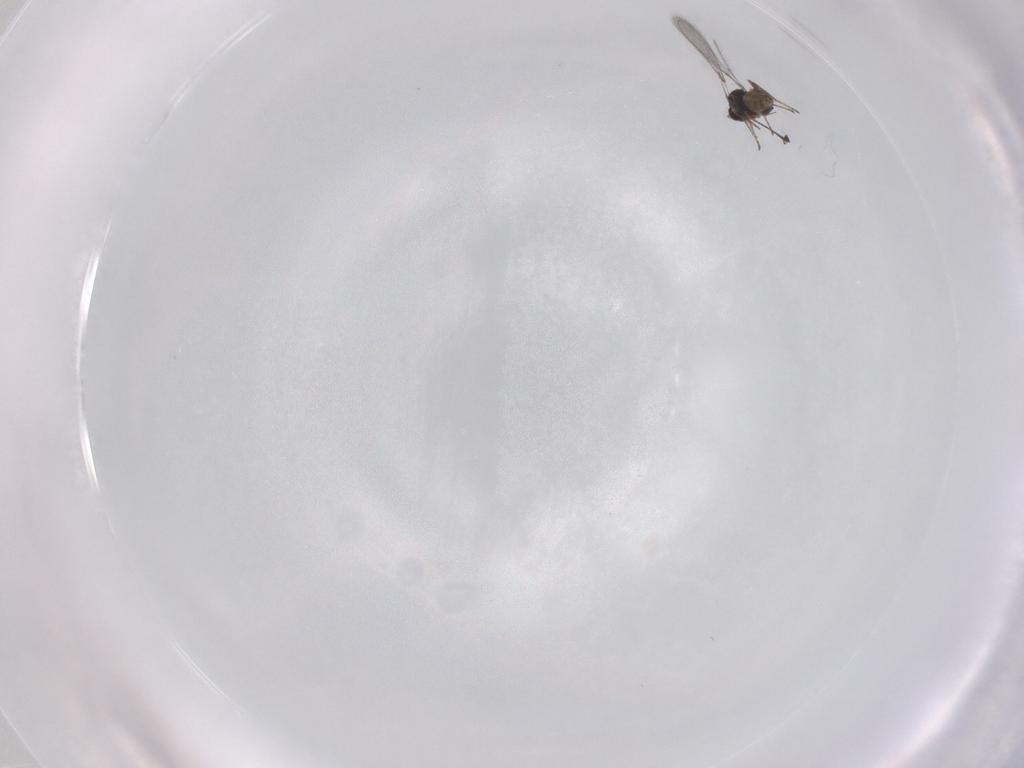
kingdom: Animalia
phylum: Arthropoda
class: Insecta
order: Hymenoptera
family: Mymaridae
